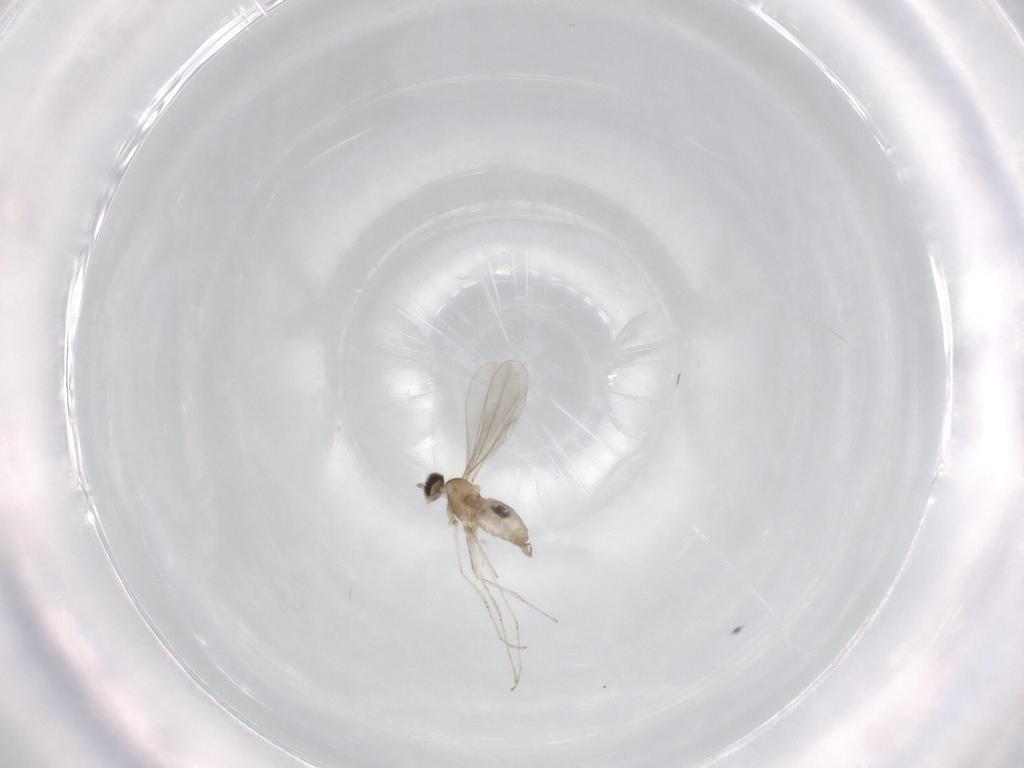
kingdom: Animalia
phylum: Arthropoda
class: Insecta
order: Diptera
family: Cecidomyiidae
